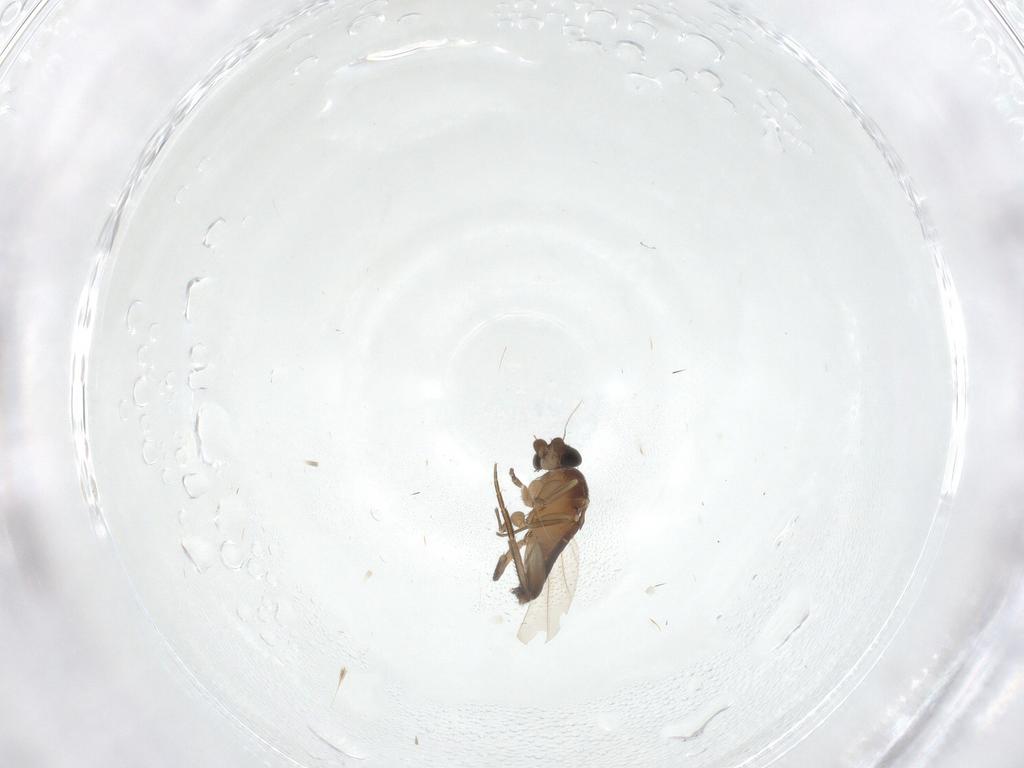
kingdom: Animalia
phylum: Arthropoda
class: Insecta
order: Diptera
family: Phoridae
